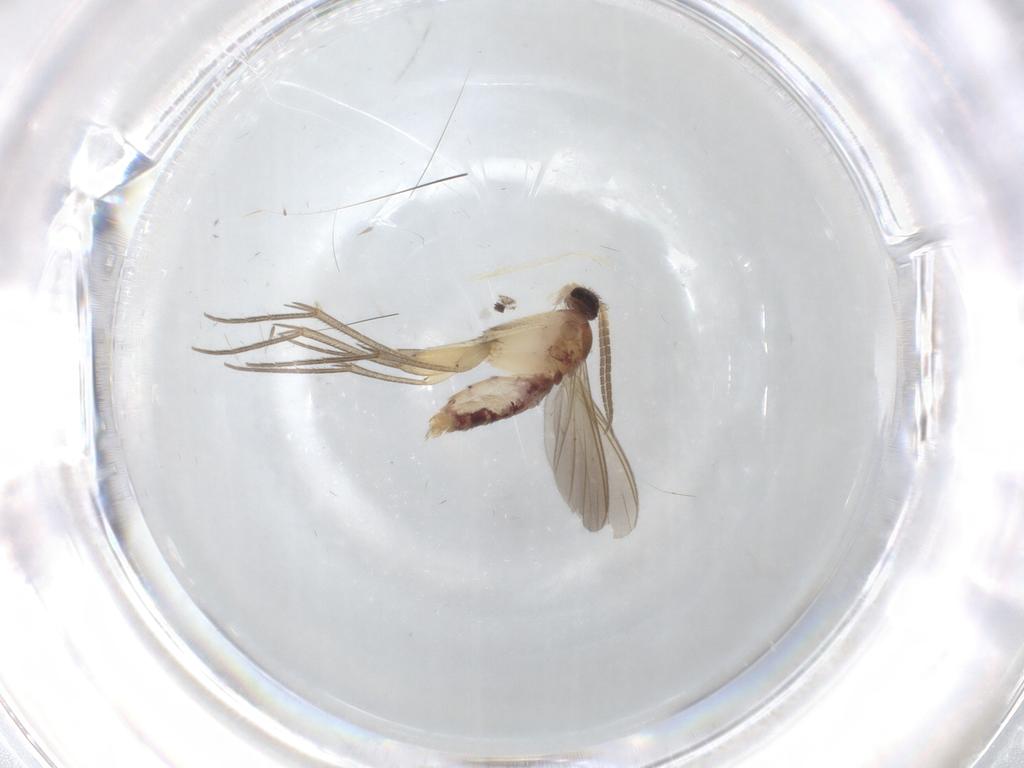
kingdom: Animalia
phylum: Arthropoda
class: Insecta
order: Diptera
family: Mycetophilidae
